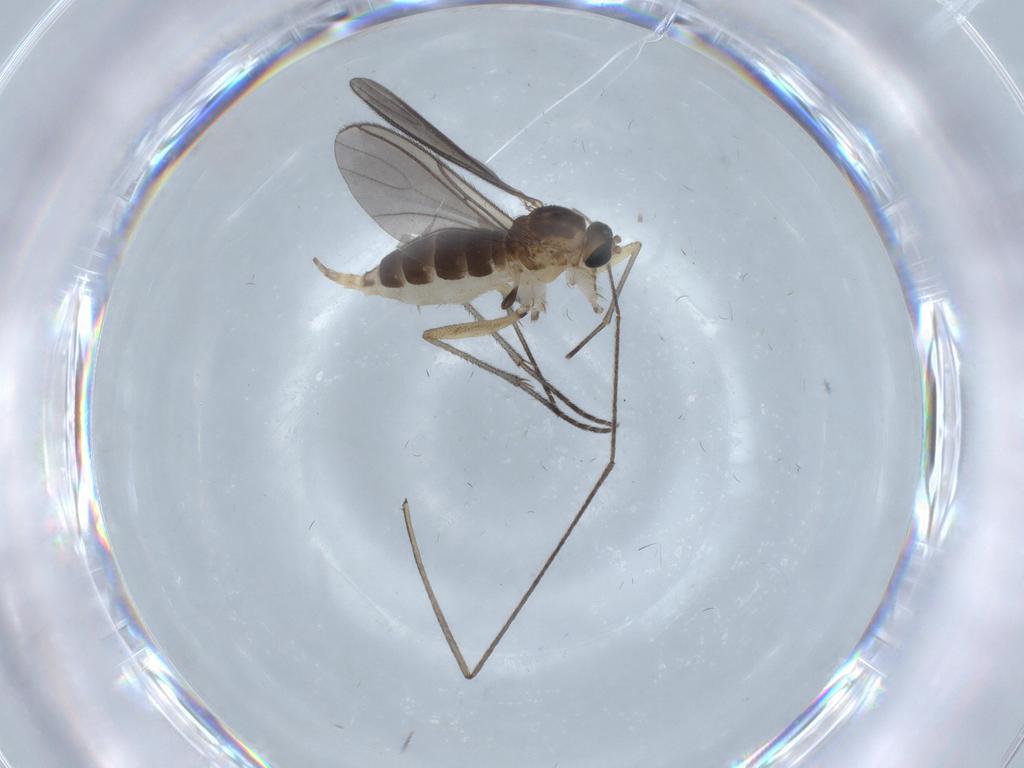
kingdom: Animalia
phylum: Arthropoda
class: Insecta
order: Diptera
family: Sciaridae
